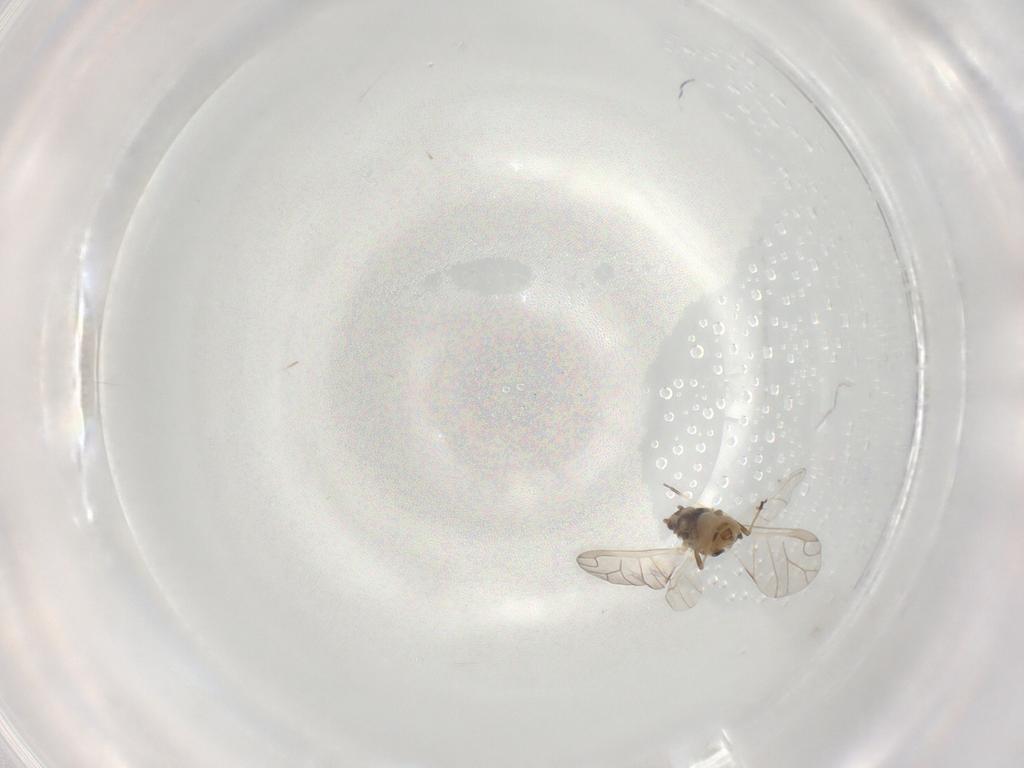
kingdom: Animalia
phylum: Arthropoda
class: Insecta
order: Hemiptera
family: Aphididae
